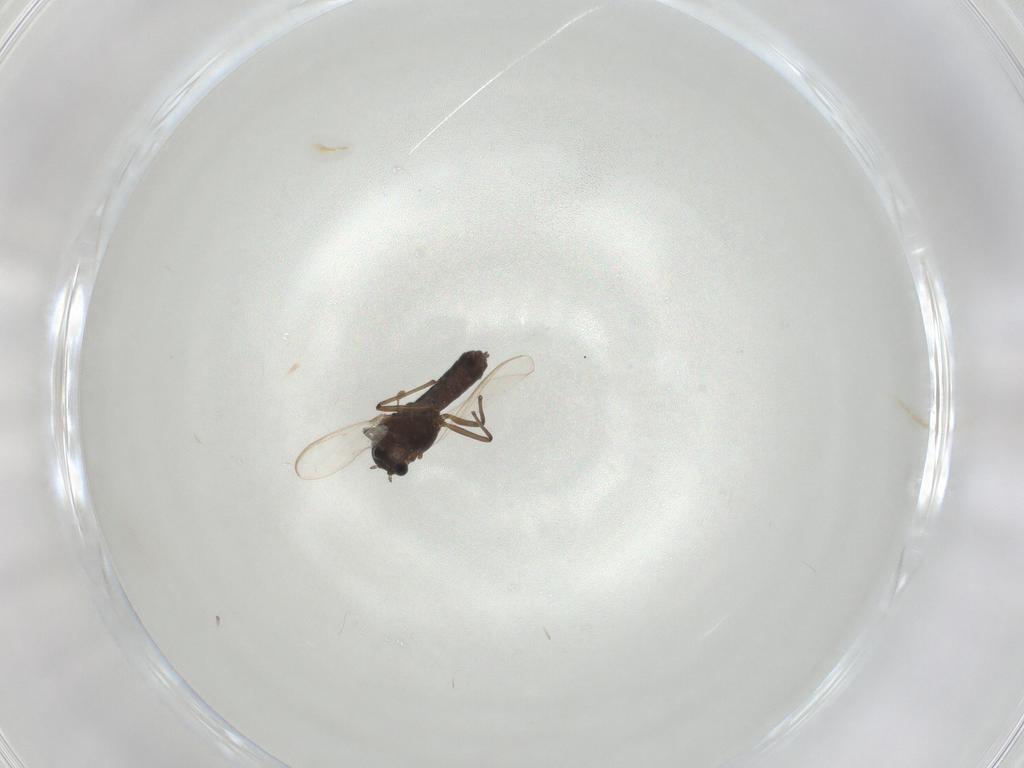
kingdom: Animalia
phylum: Arthropoda
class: Insecta
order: Diptera
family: Chironomidae
